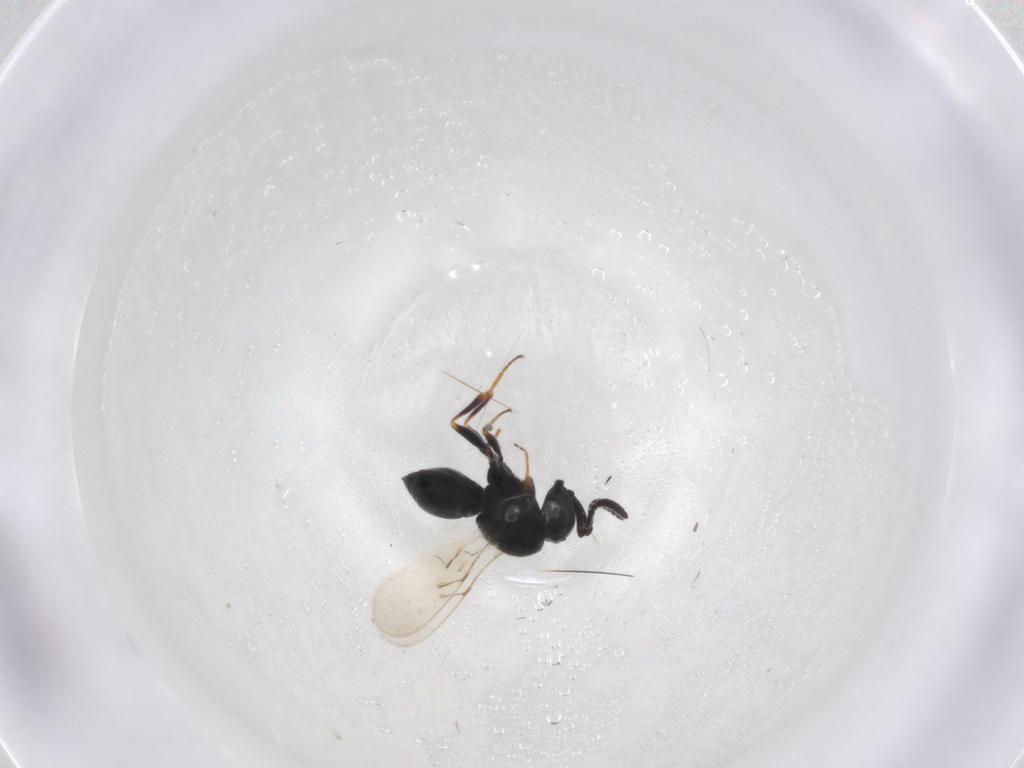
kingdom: Animalia
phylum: Arthropoda
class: Insecta
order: Hymenoptera
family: Scelionidae
